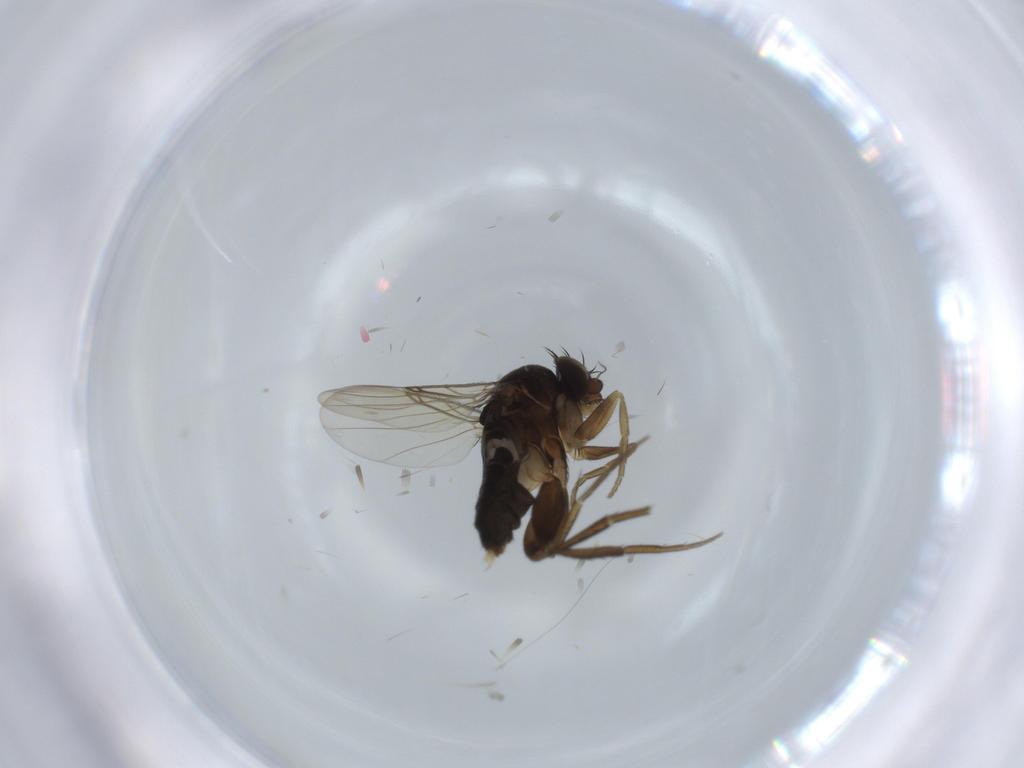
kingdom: Animalia
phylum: Arthropoda
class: Insecta
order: Diptera
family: Phoridae
